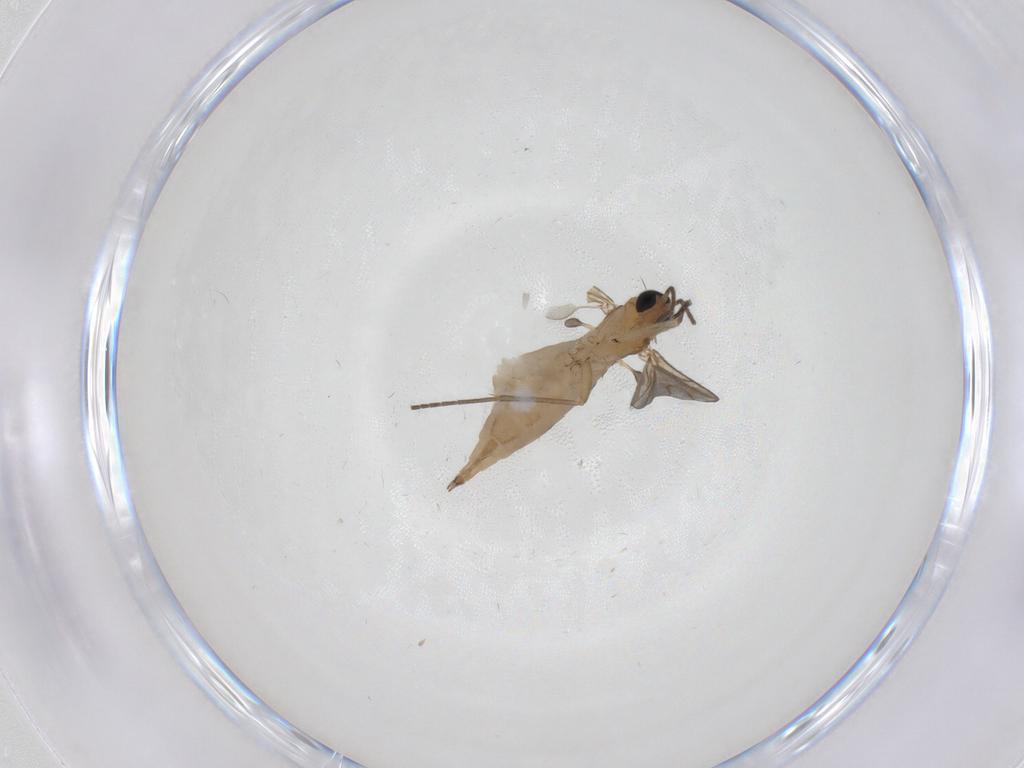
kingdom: Animalia
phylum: Arthropoda
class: Insecta
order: Diptera
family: Sciaridae
